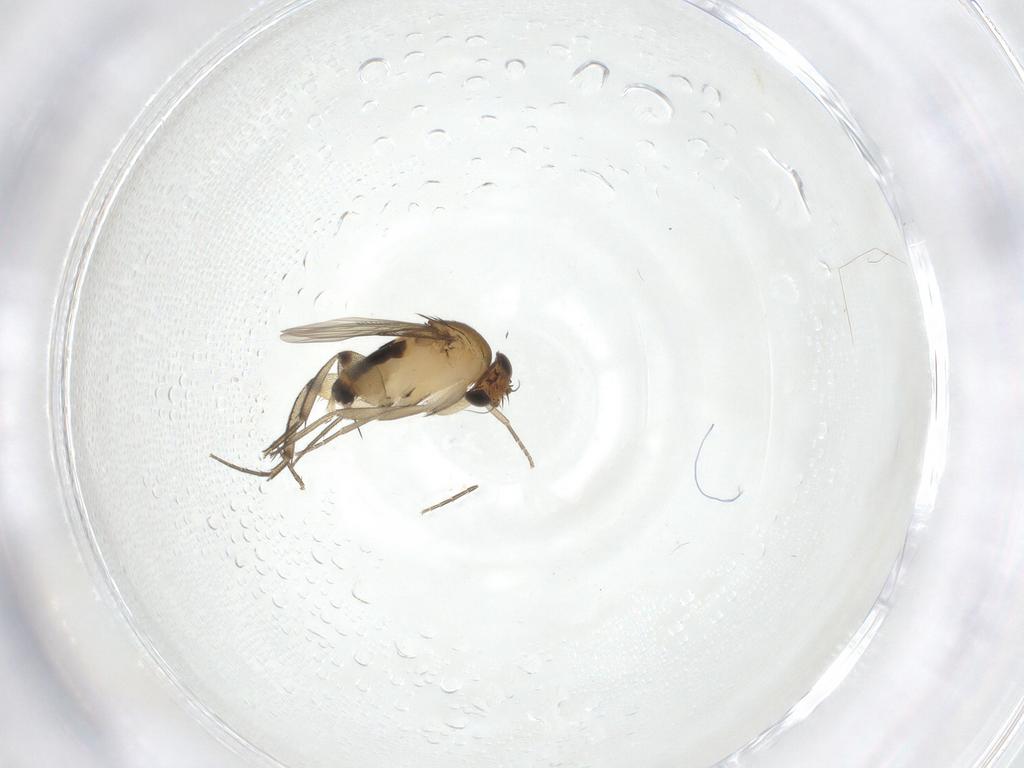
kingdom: Animalia
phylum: Arthropoda
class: Insecta
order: Diptera
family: Phoridae
